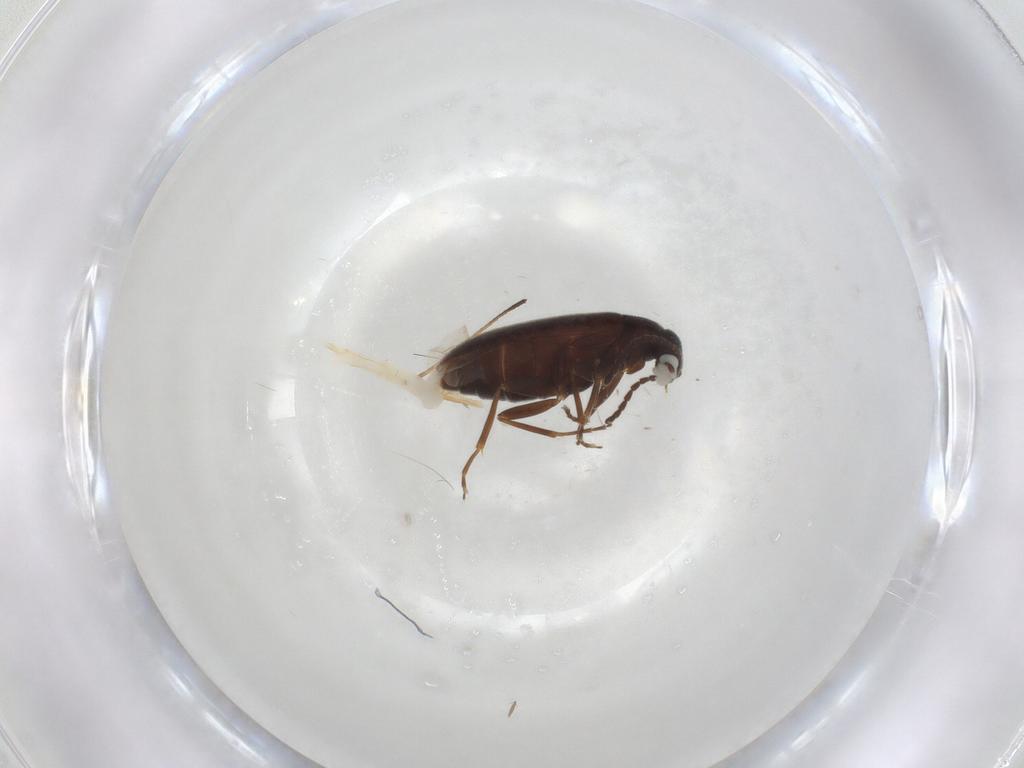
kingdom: Animalia
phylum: Arthropoda
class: Insecta
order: Coleoptera
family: Scraptiidae
